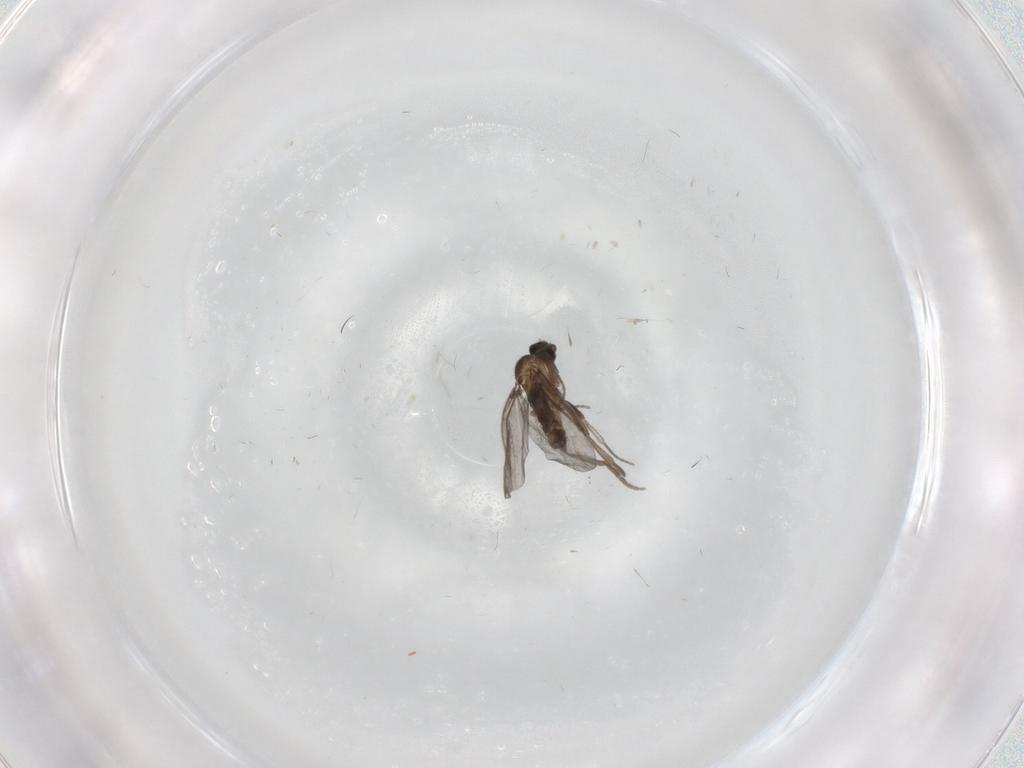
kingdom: Animalia
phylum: Arthropoda
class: Insecta
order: Diptera
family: Phoridae
